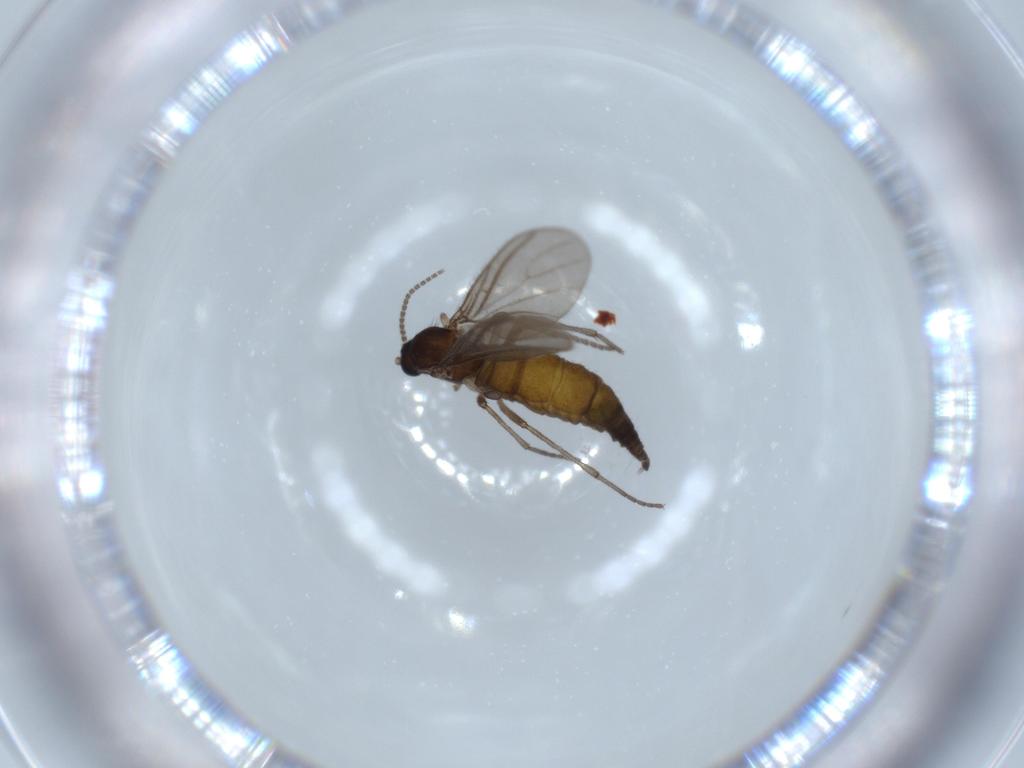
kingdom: Animalia
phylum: Arthropoda
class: Insecta
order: Diptera
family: Sciaridae
